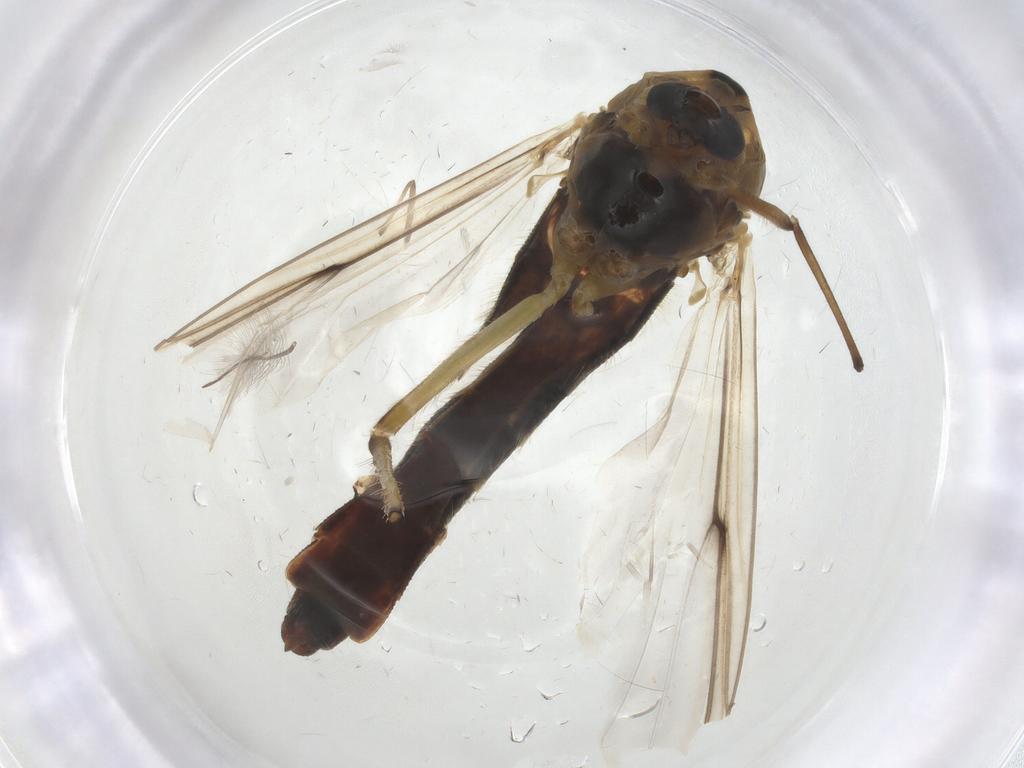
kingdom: Animalia
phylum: Arthropoda
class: Insecta
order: Diptera
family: Chironomidae
